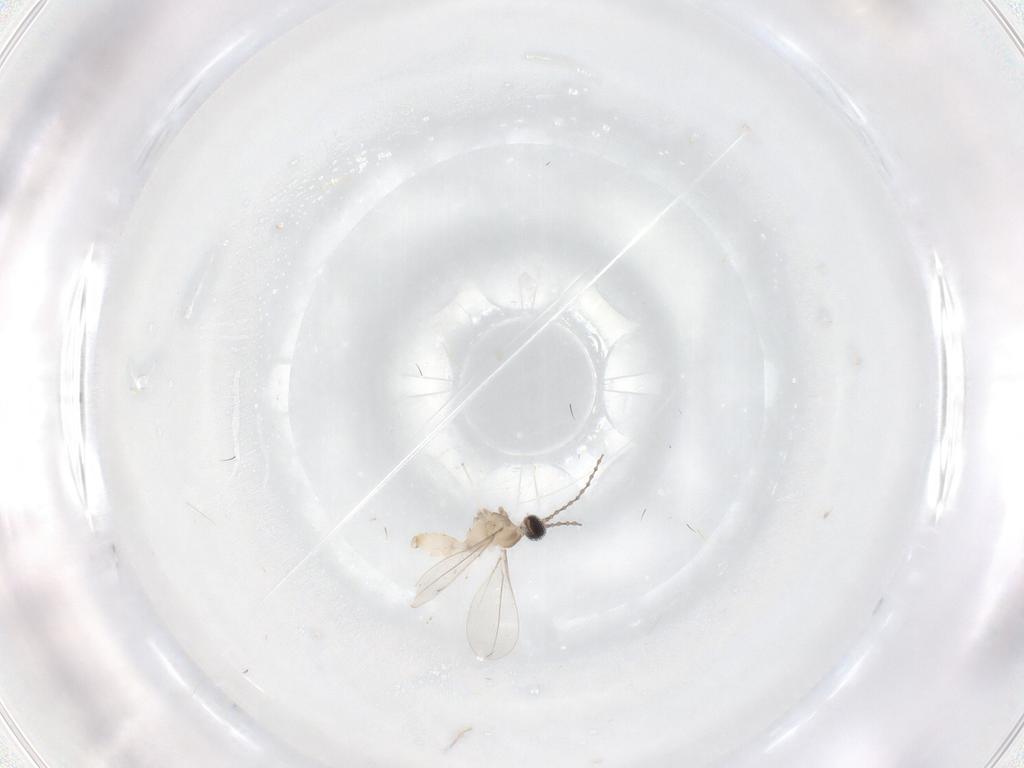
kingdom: Animalia
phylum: Arthropoda
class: Insecta
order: Diptera
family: Cecidomyiidae
